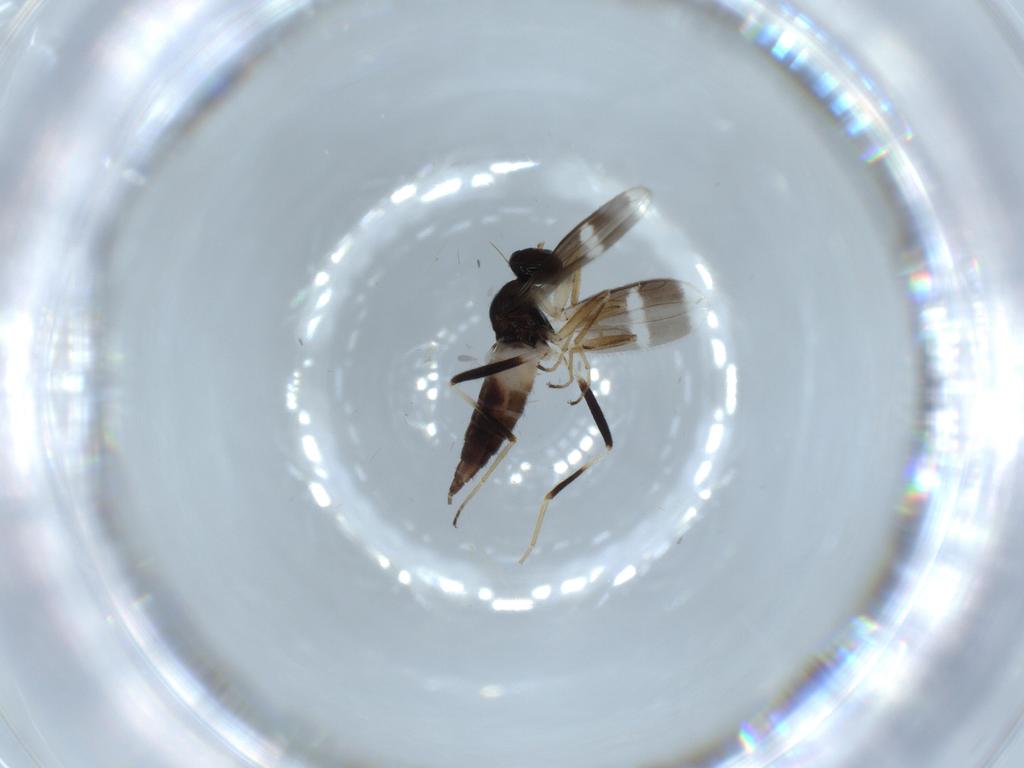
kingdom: Animalia
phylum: Arthropoda
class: Insecta
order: Diptera
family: Hybotidae
